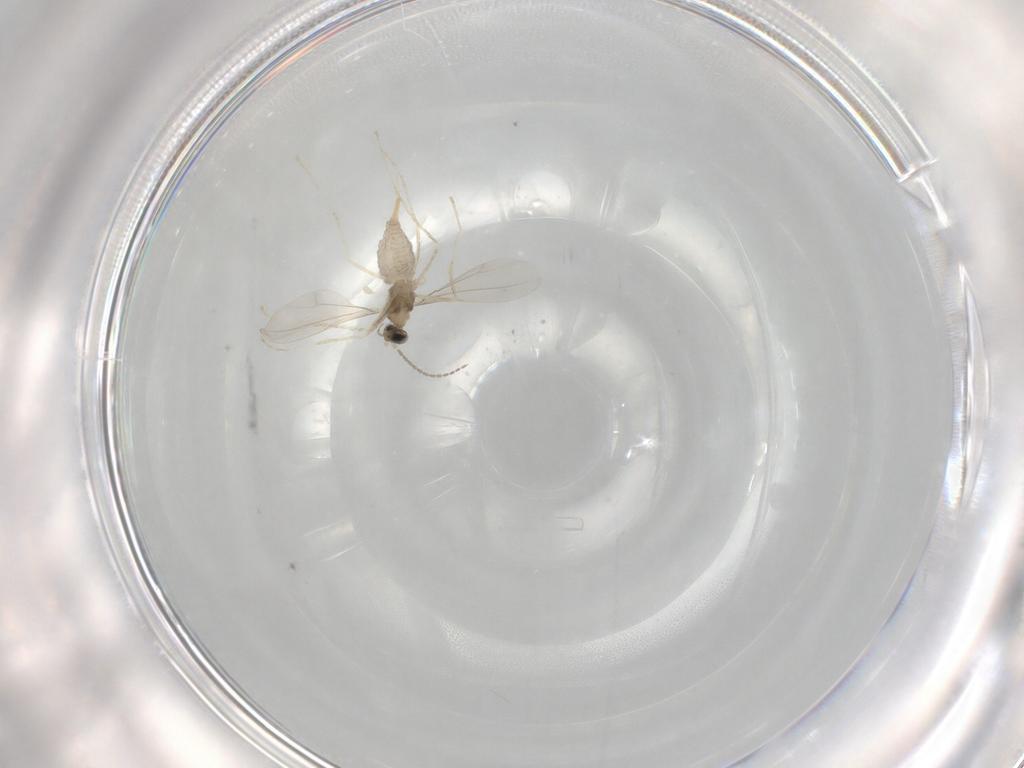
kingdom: Animalia
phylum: Arthropoda
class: Insecta
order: Diptera
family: Cecidomyiidae
